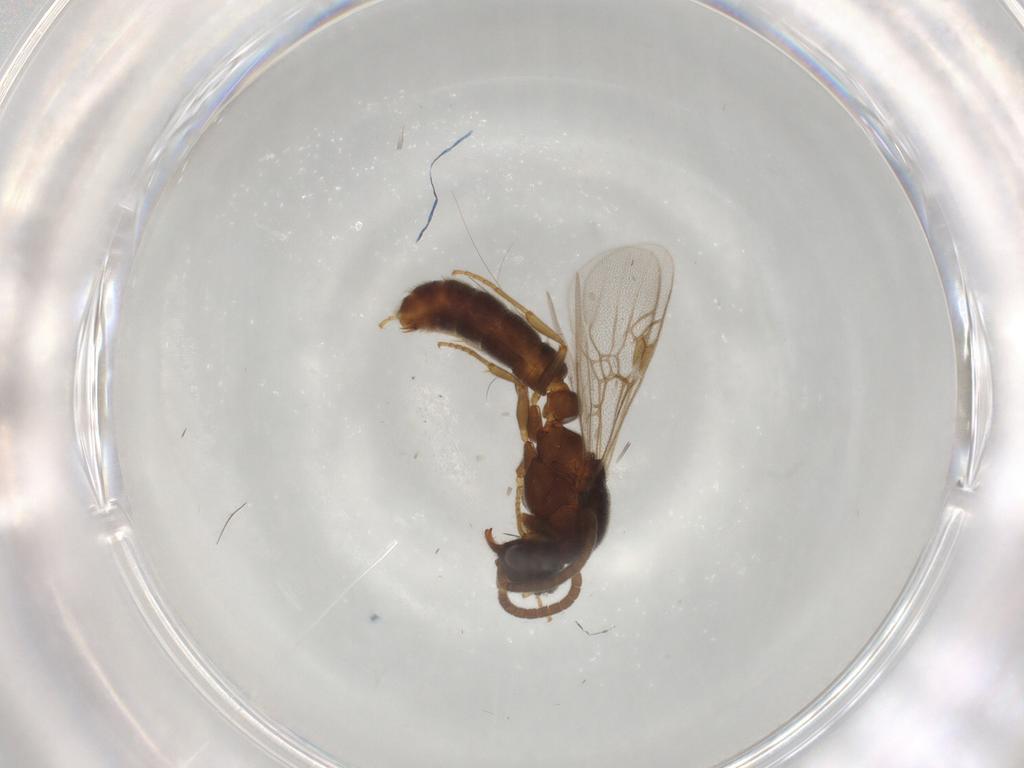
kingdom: Animalia
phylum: Arthropoda
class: Insecta
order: Hymenoptera
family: Formicidae
